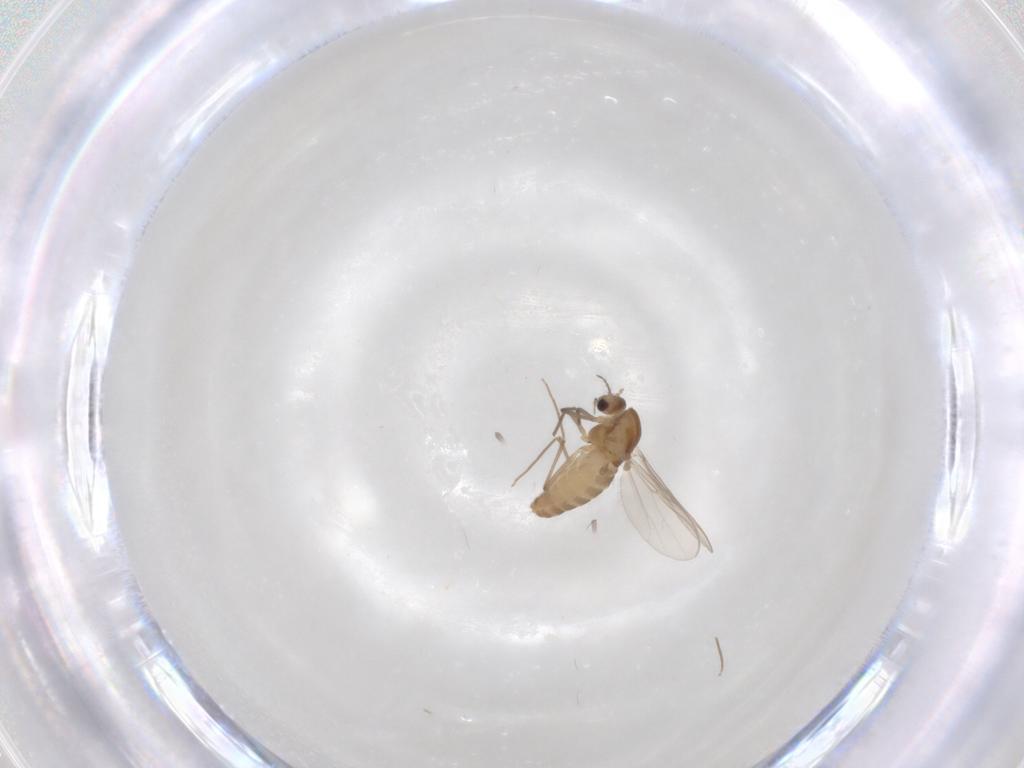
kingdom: Animalia
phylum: Arthropoda
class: Insecta
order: Diptera
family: Chironomidae
